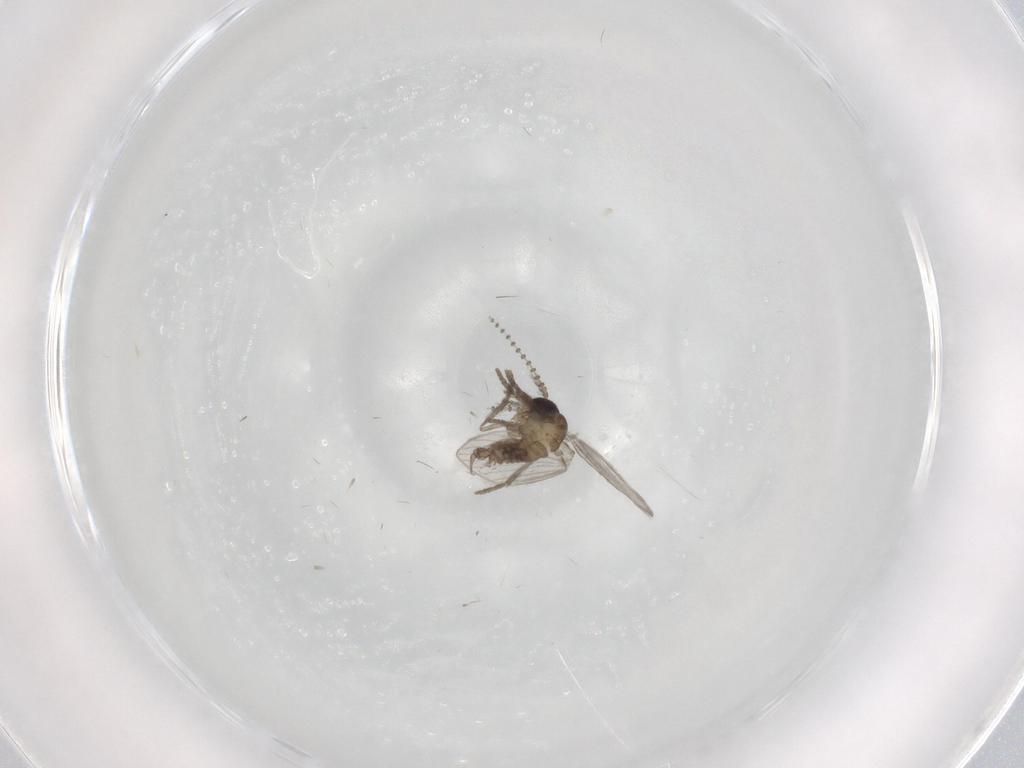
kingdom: Animalia
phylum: Arthropoda
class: Insecta
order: Diptera
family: Psychodidae
